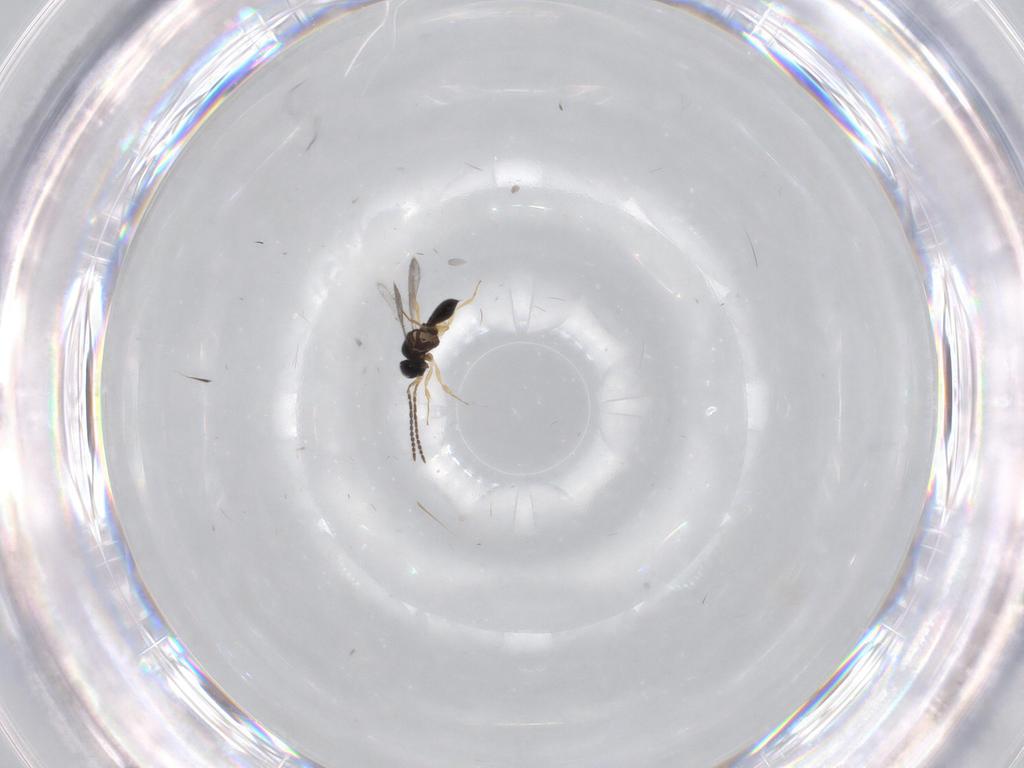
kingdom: Animalia
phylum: Arthropoda
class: Insecta
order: Hymenoptera
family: Scelionidae
